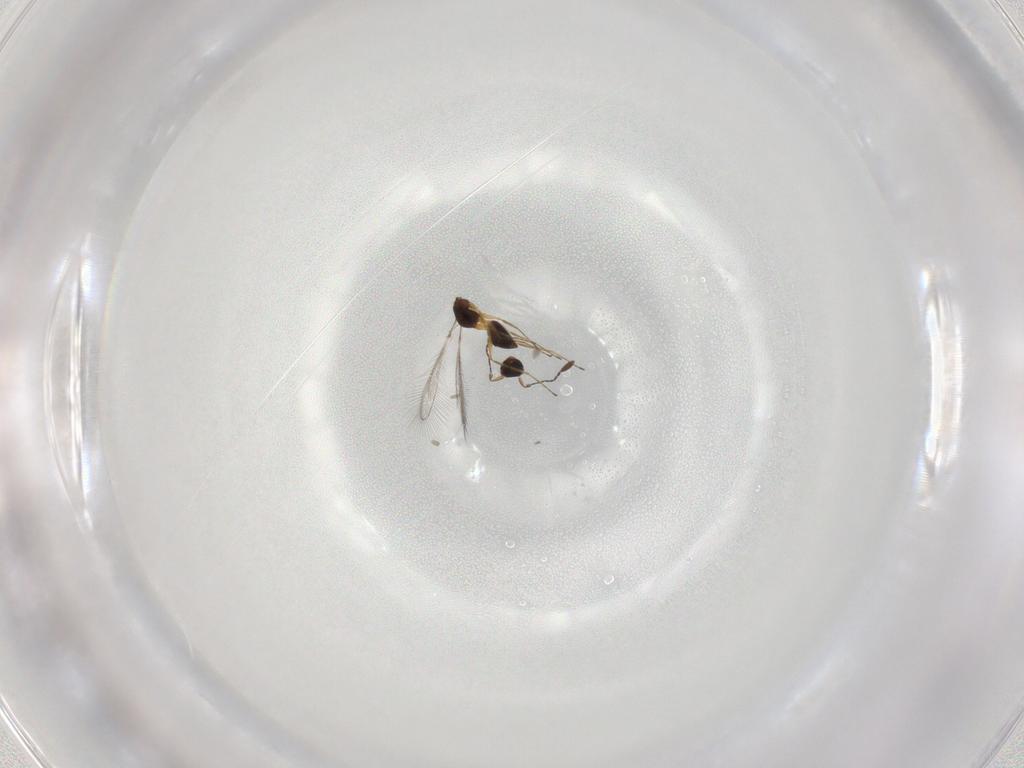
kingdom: Animalia
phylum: Arthropoda
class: Insecta
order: Hymenoptera
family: Mymaridae
